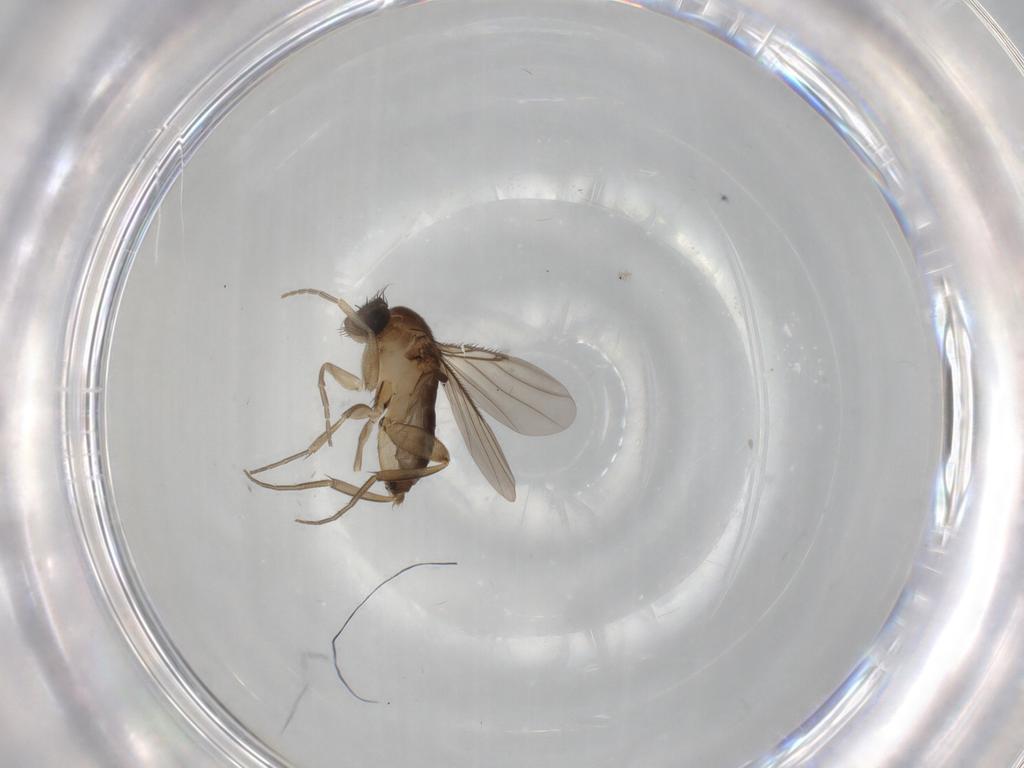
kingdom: Animalia
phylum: Arthropoda
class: Insecta
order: Diptera
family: Phoridae
